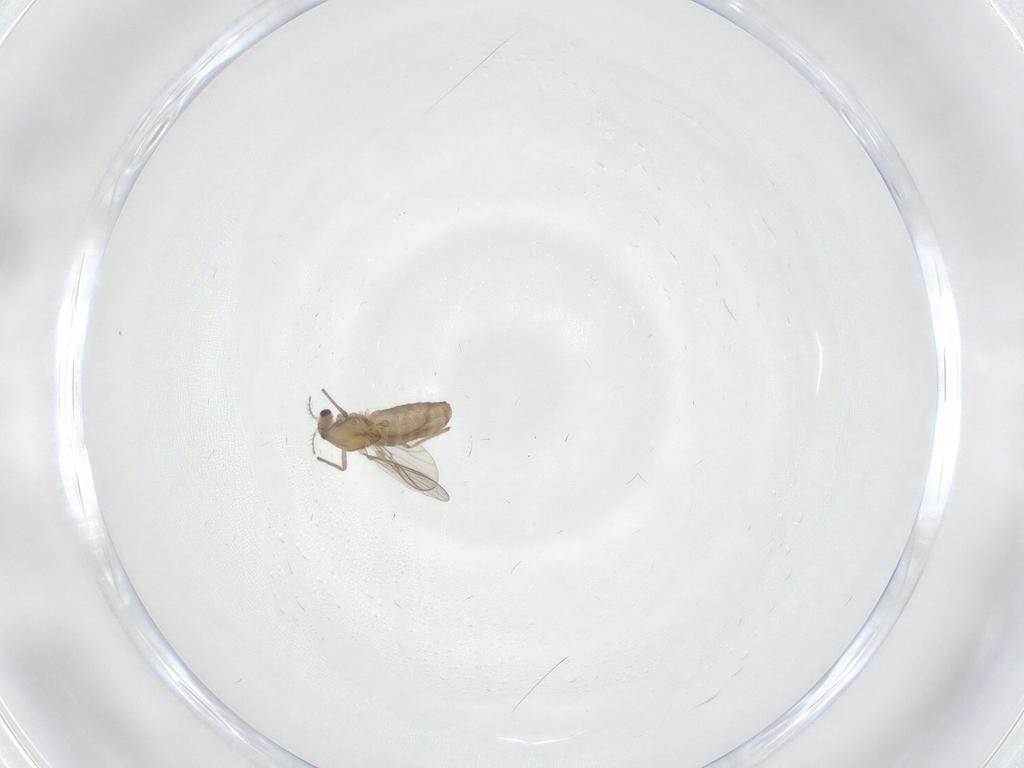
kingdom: Animalia
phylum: Arthropoda
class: Insecta
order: Diptera
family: Chironomidae
